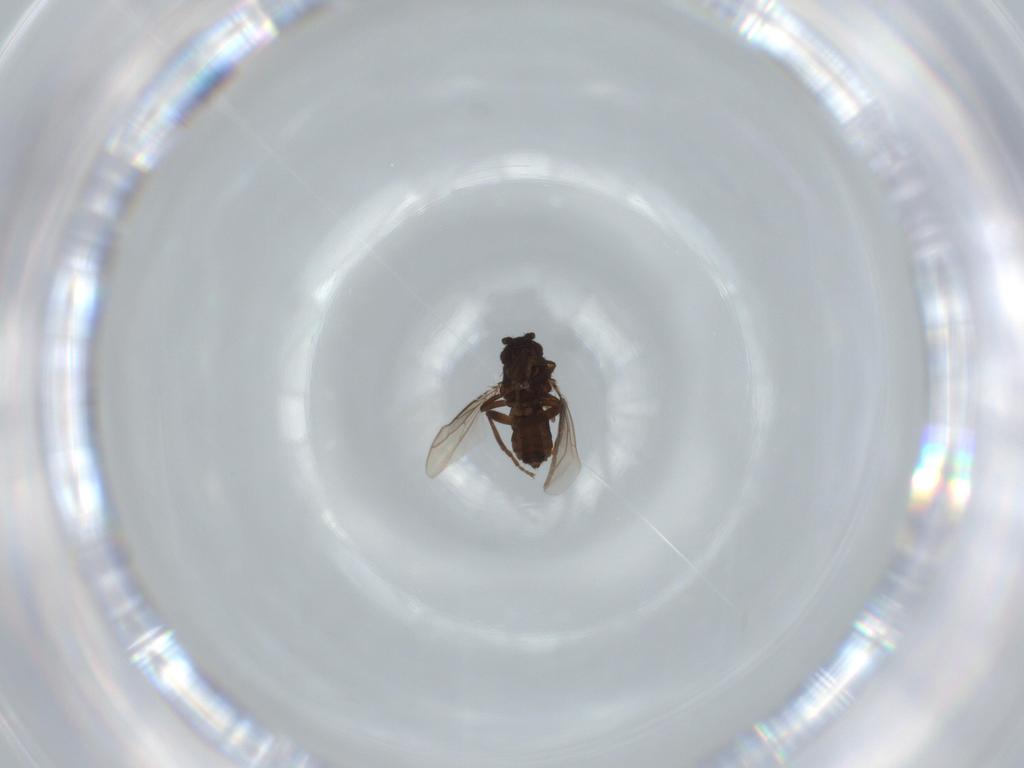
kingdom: Animalia
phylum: Arthropoda
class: Insecta
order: Diptera
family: Sphaeroceridae
